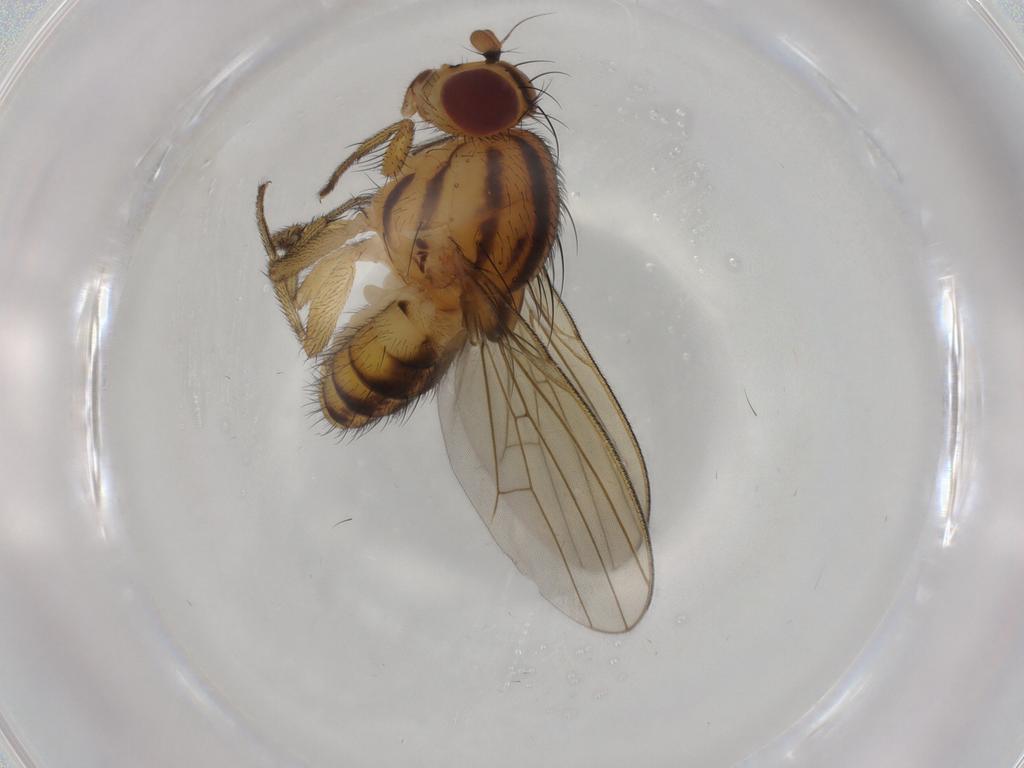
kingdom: Animalia
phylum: Arthropoda
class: Insecta
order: Diptera
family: Ceratopogonidae
